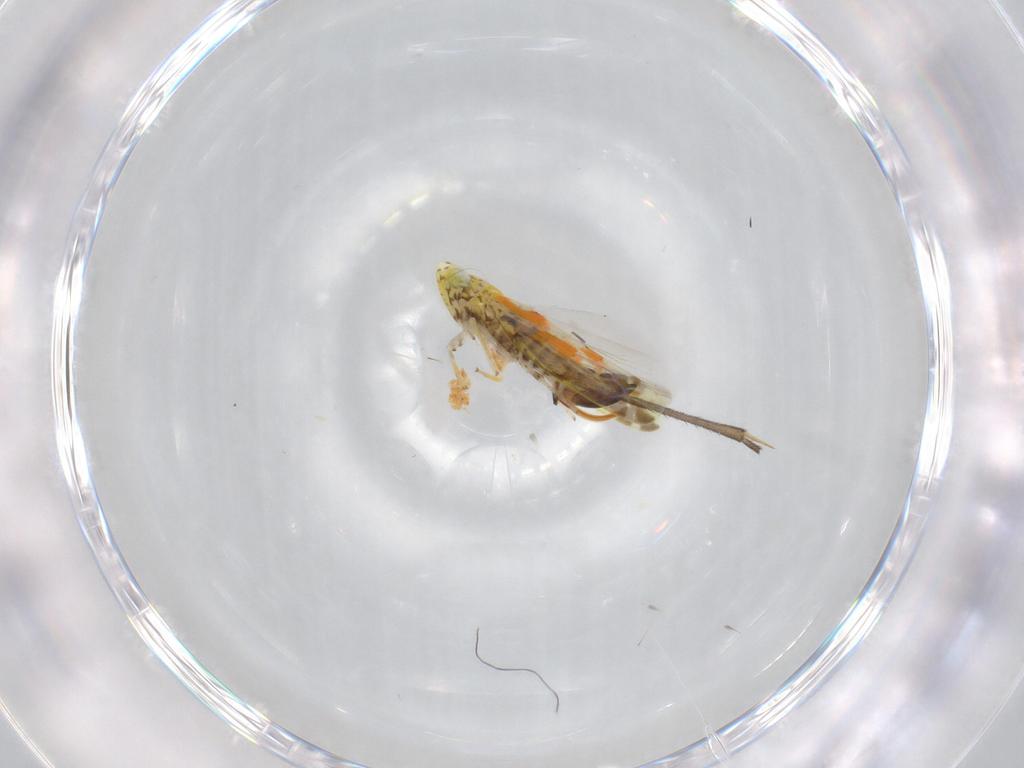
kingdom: Animalia
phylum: Arthropoda
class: Insecta
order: Hemiptera
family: Cicadellidae
